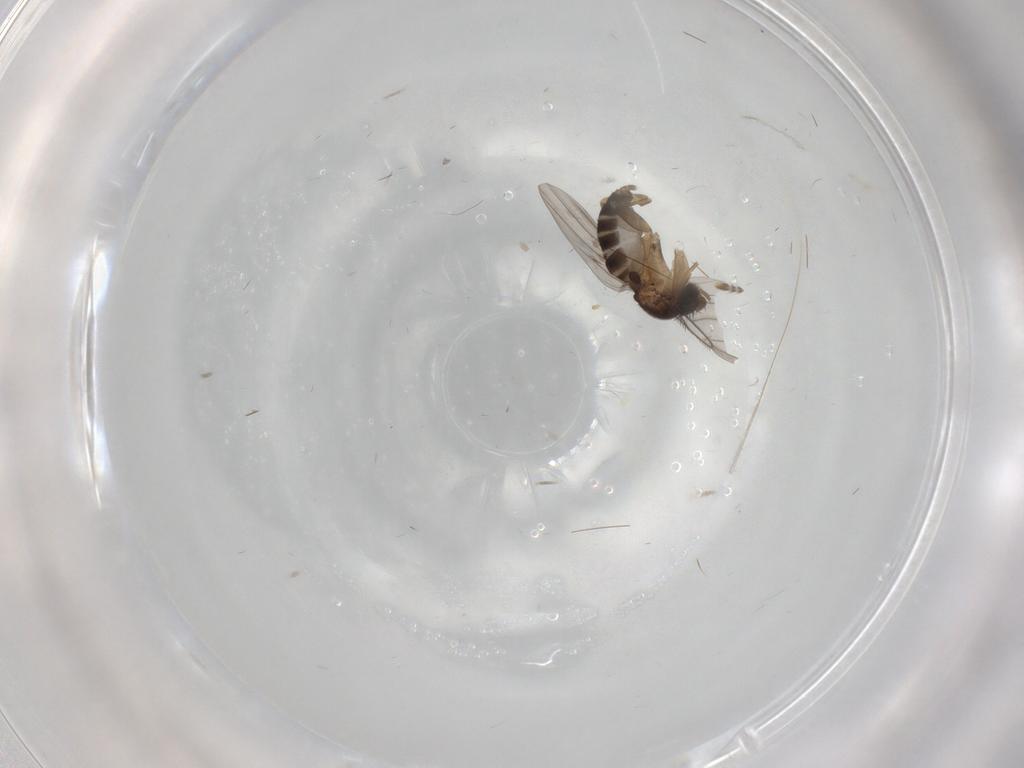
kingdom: Animalia
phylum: Arthropoda
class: Insecta
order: Diptera
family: Cecidomyiidae
